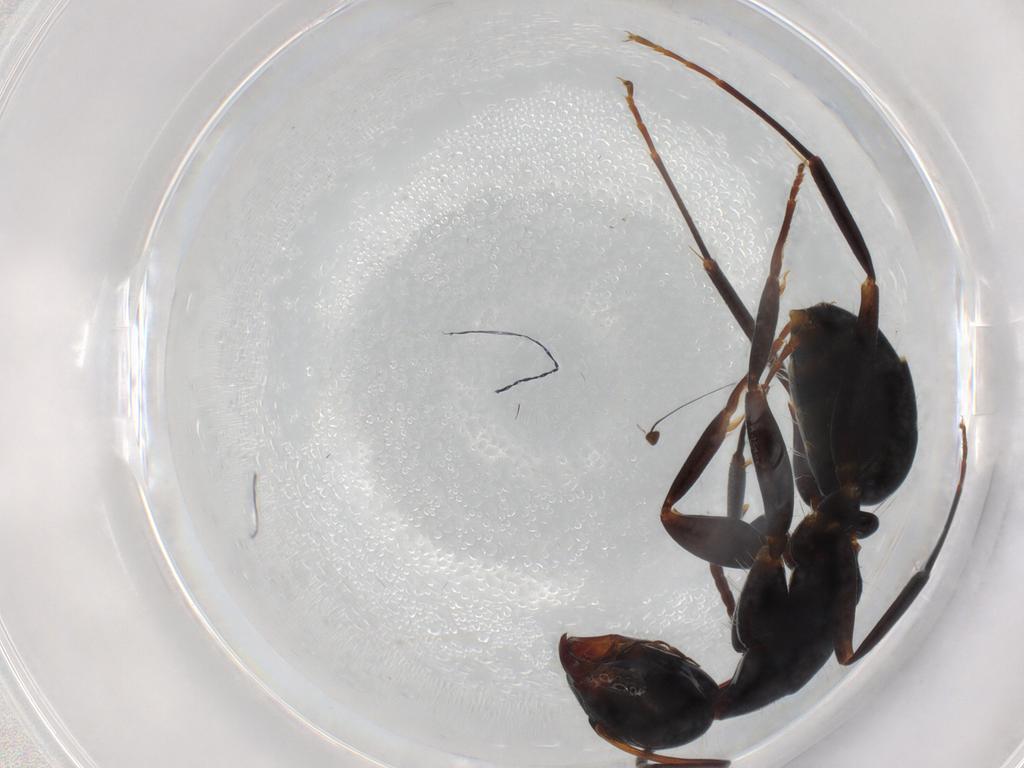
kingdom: Animalia
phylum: Arthropoda
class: Insecta
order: Hymenoptera
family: Formicidae
